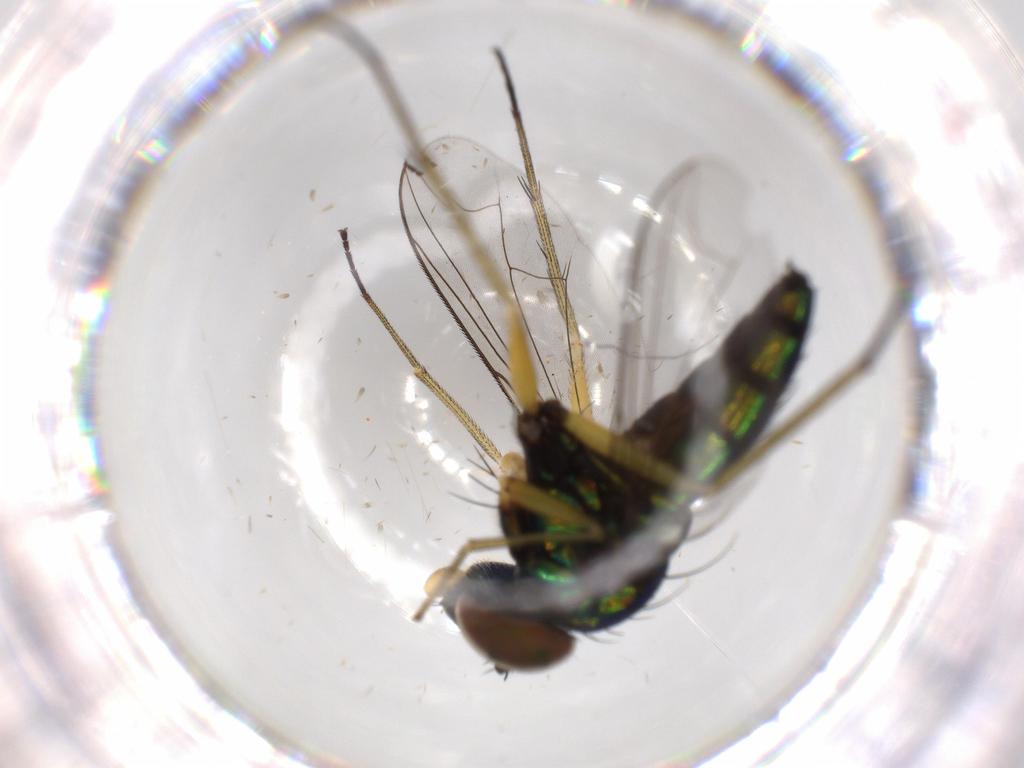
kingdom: Animalia
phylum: Arthropoda
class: Insecta
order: Diptera
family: Dolichopodidae
